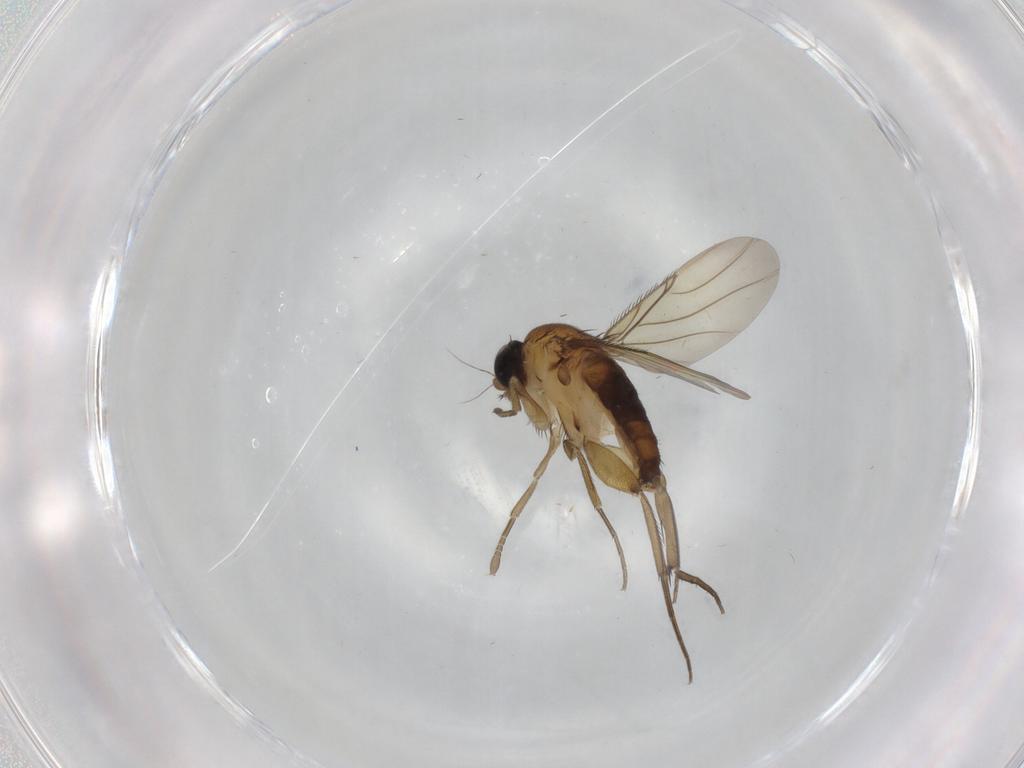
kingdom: Animalia
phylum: Arthropoda
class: Insecta
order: Diptera
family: Phoridae
